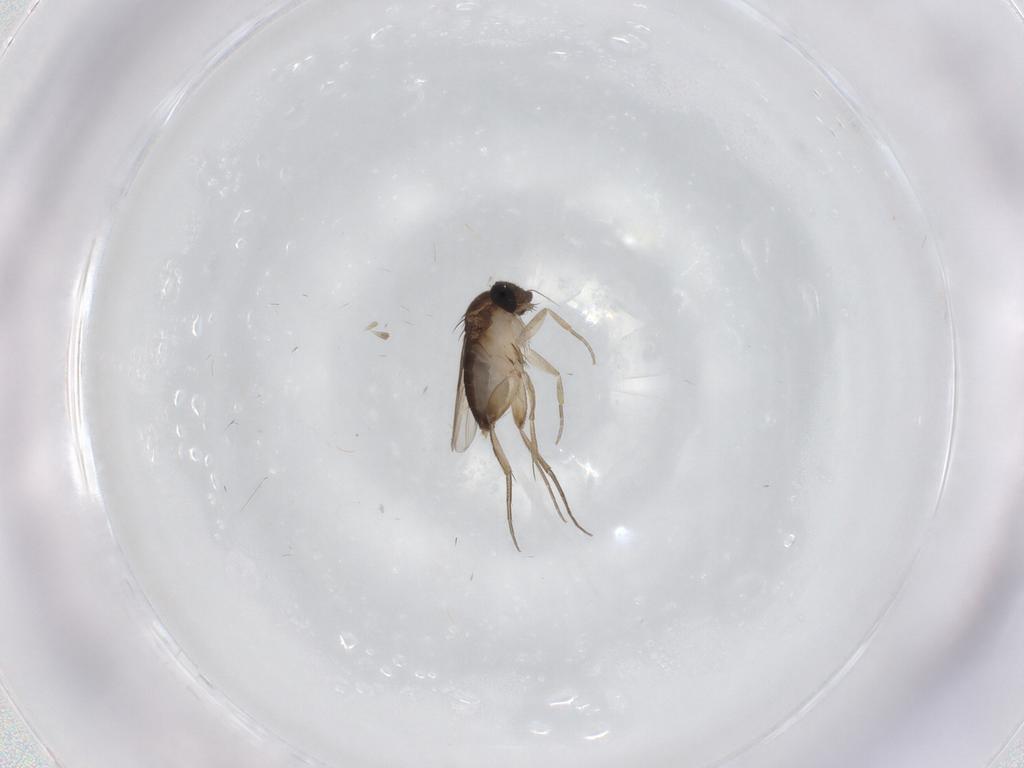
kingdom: Animalia
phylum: Arthropoda
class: Insecta
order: Diptera
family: Phoridae
